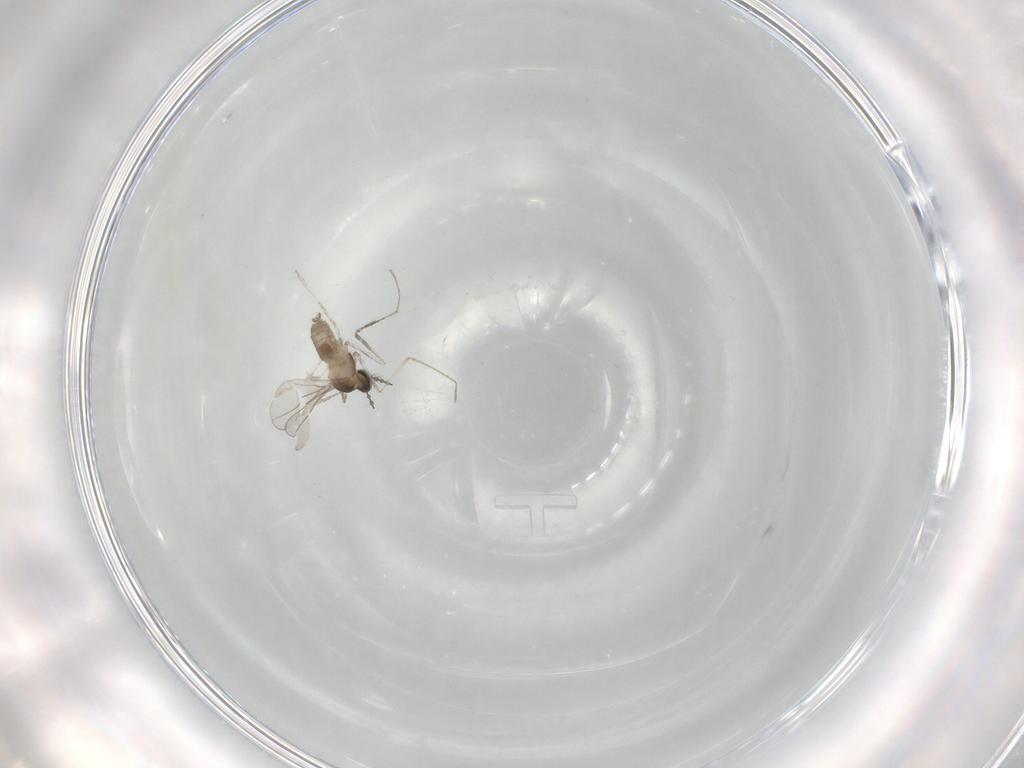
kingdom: Animalia
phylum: Arthropoda
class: Insecta
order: Diptera
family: Cecidomyiidae
